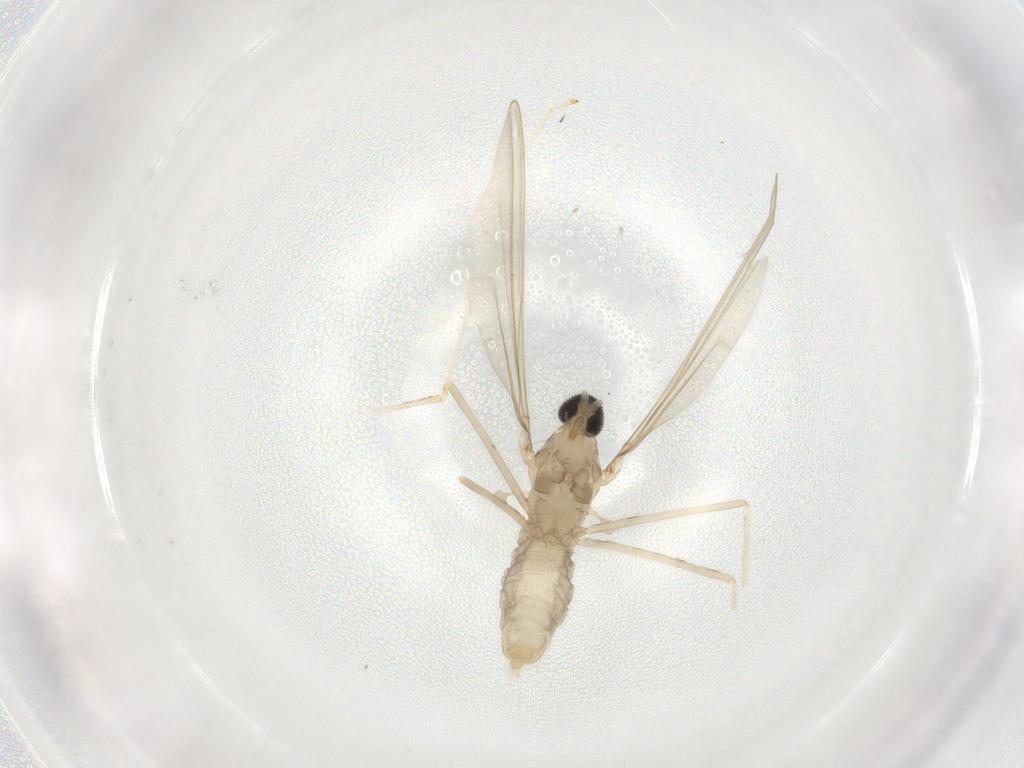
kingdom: Animalia
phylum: Arthropoda
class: Insecta
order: Diptera
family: Cecidomyiidae
